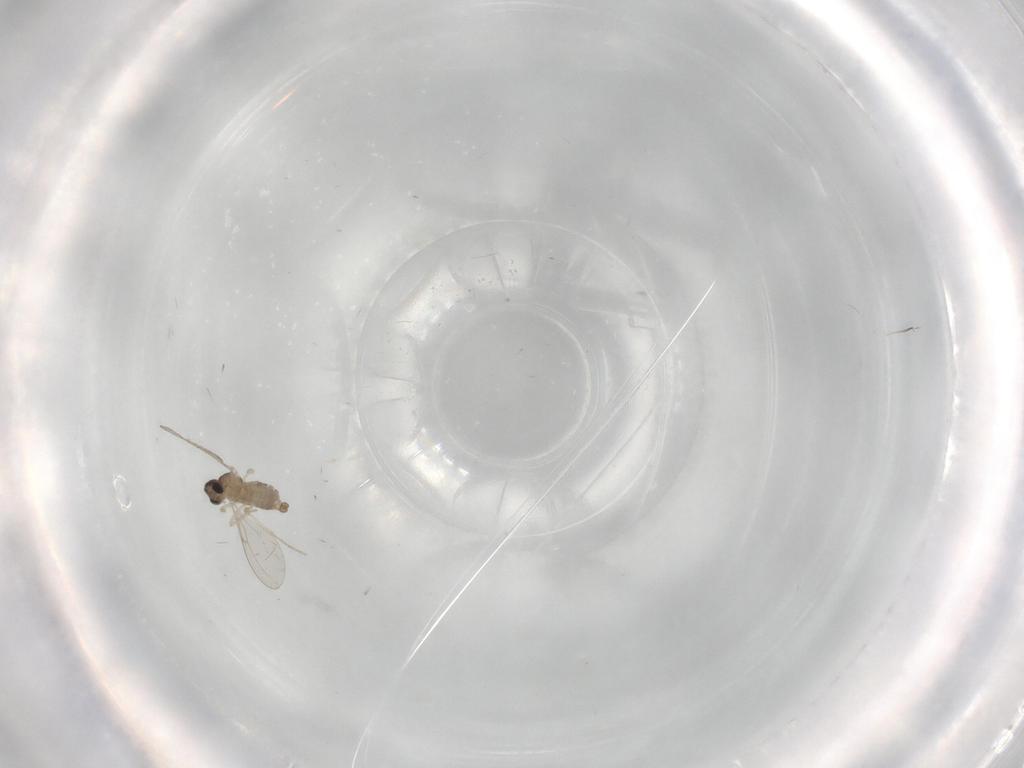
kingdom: Animalia
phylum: Arthropoda
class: Insecta
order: Diptera
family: Cecidomyiidae
